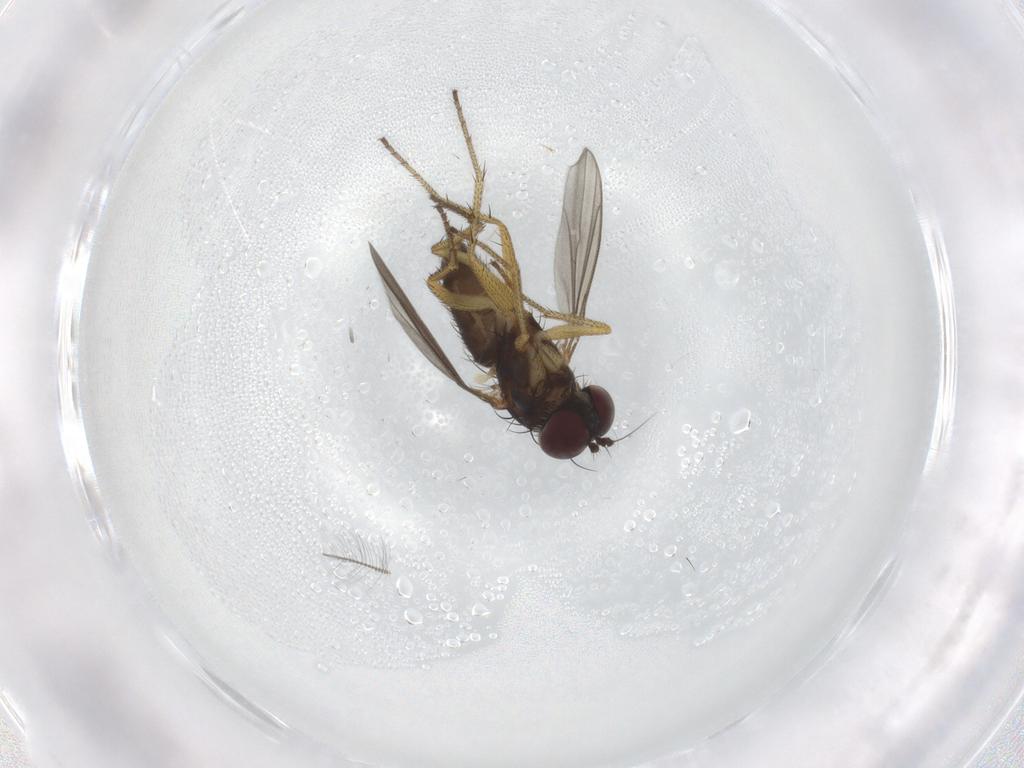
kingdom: Animalia
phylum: Arthropoda
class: Insecta
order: Diptera
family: Dolichopodidae
